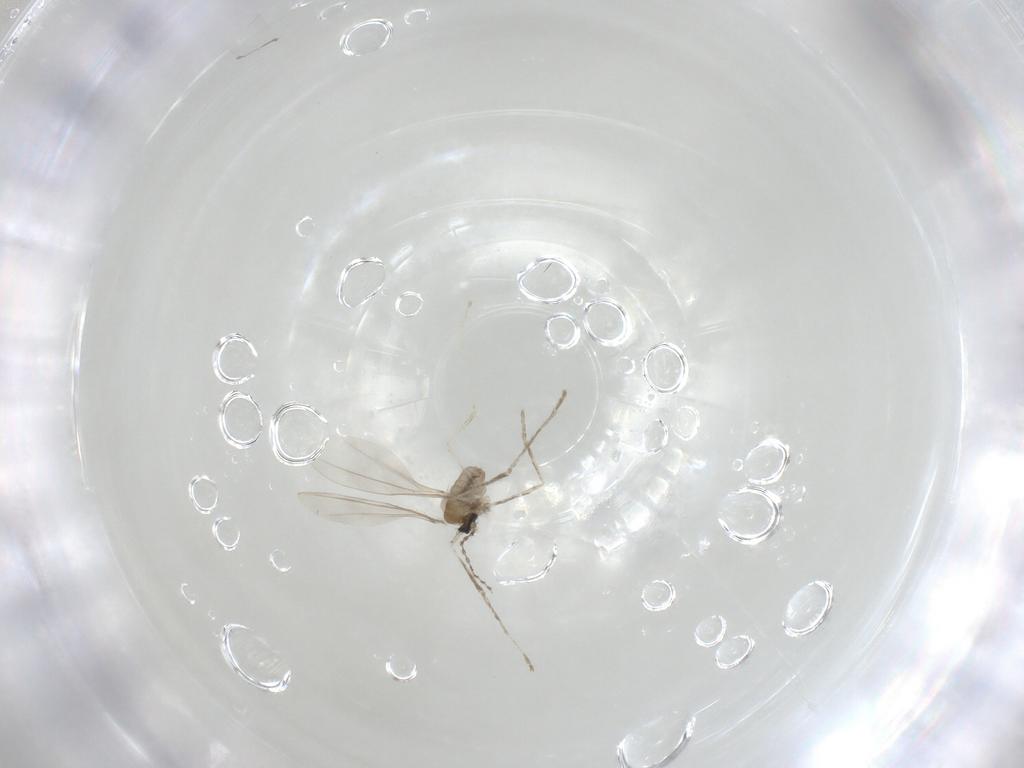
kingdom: Animalia
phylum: Arthropoda
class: Insecta
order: Diptera
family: Cecidomyiidae
